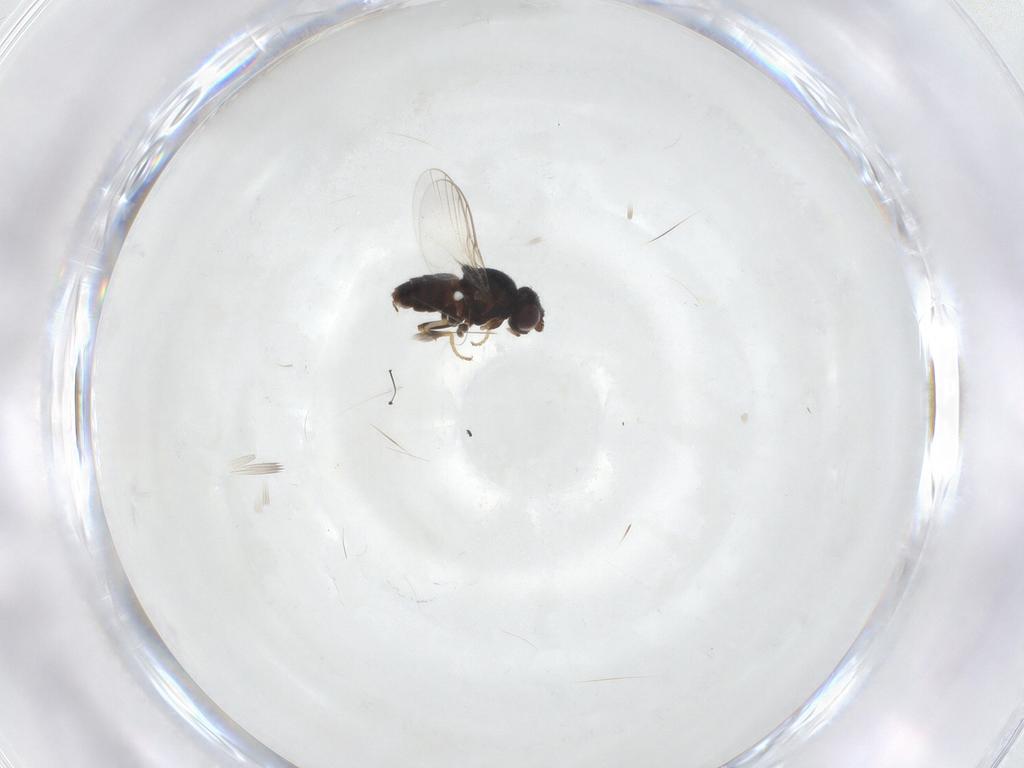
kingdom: Animalia
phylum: Arthropoda
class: Insecta
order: Diptera
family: Chloropidae
